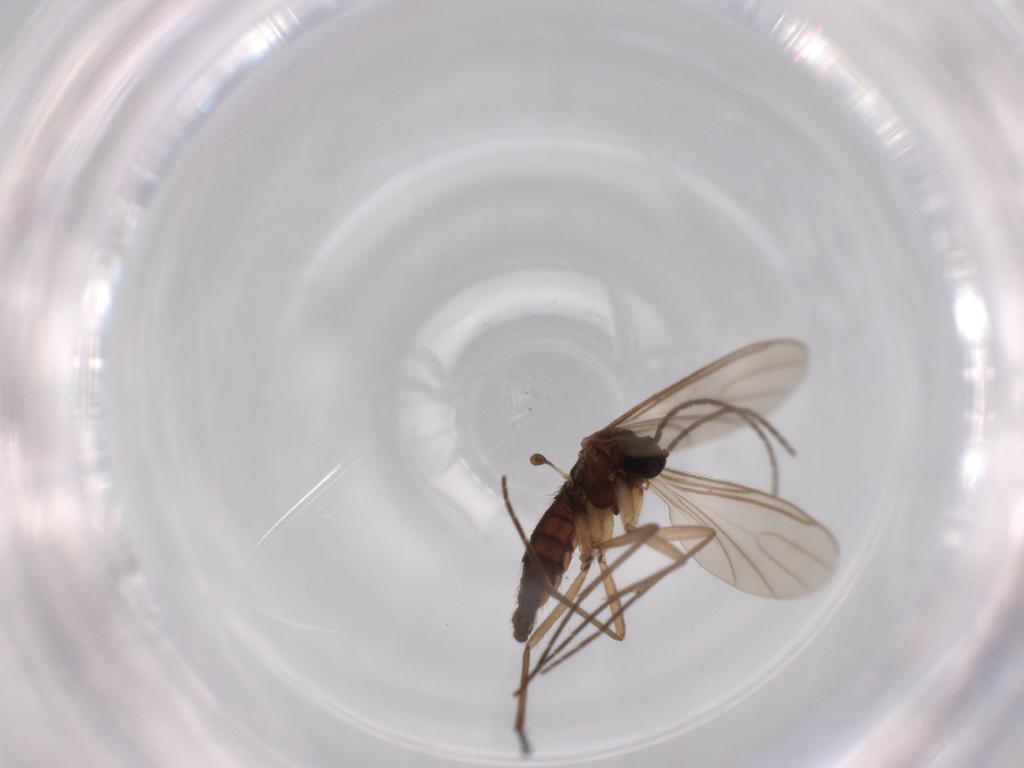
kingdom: Animalia
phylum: Arthropoda
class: Insecta
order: Diptera
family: Sciaridae
